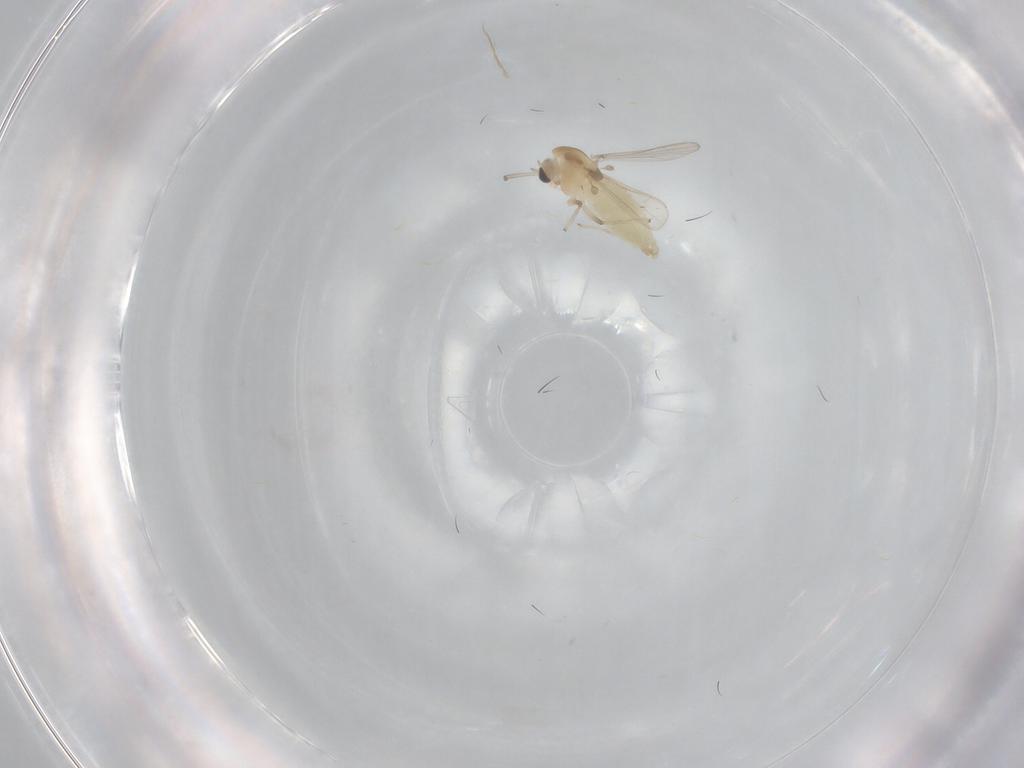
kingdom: Animalia
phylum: Arthropoda
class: Insecta
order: Diptera
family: Chironomidae
